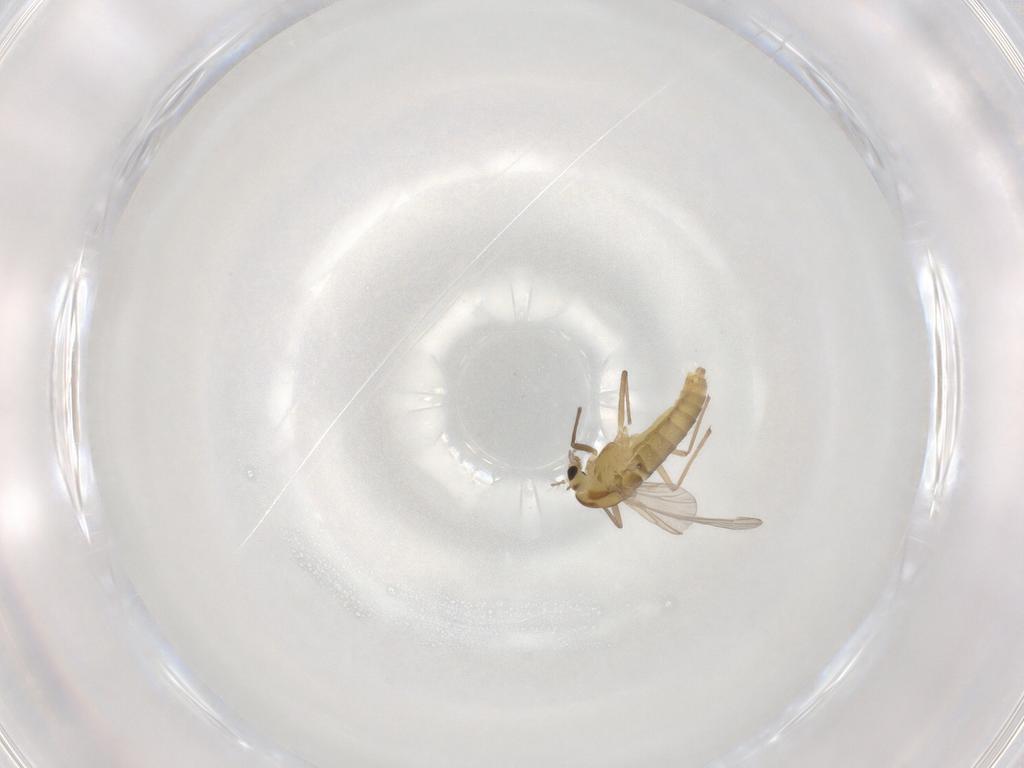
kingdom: Animalia
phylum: Arthropoda
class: Insecta
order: Diptera
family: Chironomidae
